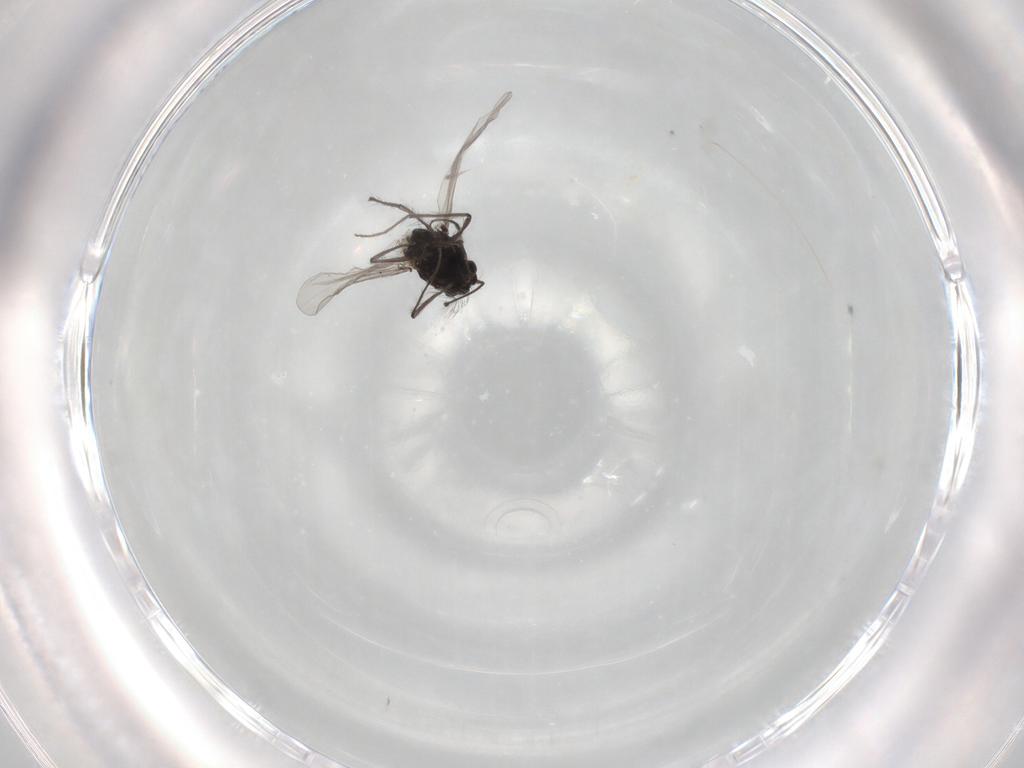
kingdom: Animalia
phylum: Arthropoda
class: Insecta
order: Diptera
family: Chironomidae
